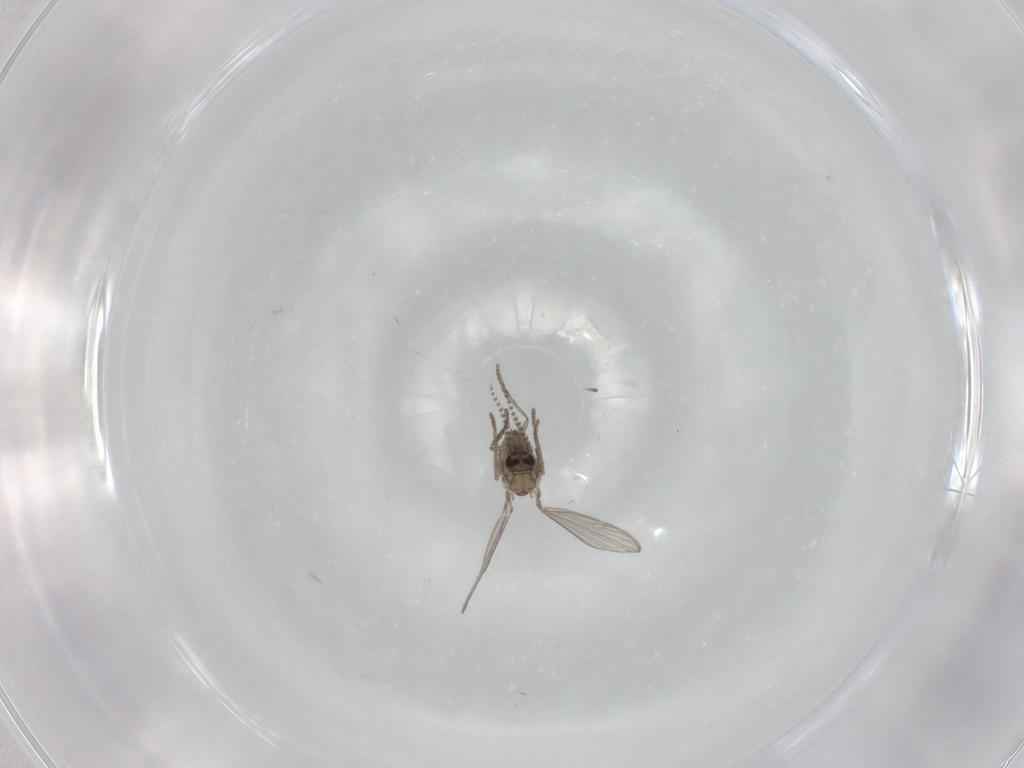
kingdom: Animalia
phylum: Arthropoda
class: Insecta
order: Diptera
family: Psychodidae
